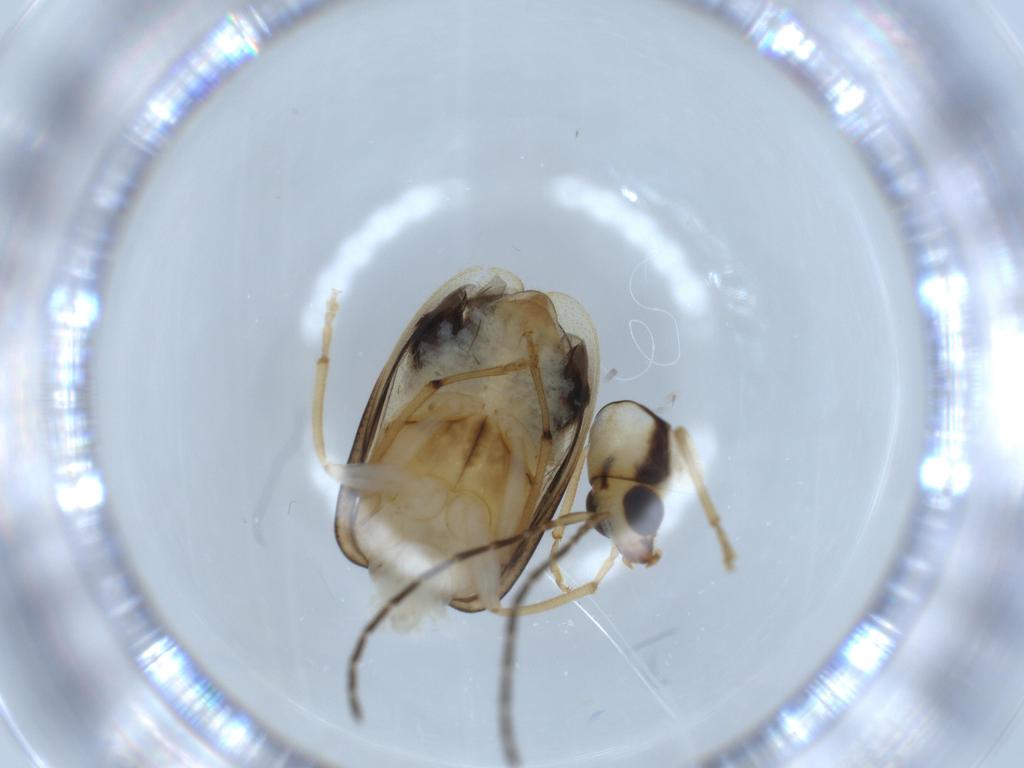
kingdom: Animalia
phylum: Arthropoda
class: Insecta
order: Coleoptera
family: Chrysomelidae
